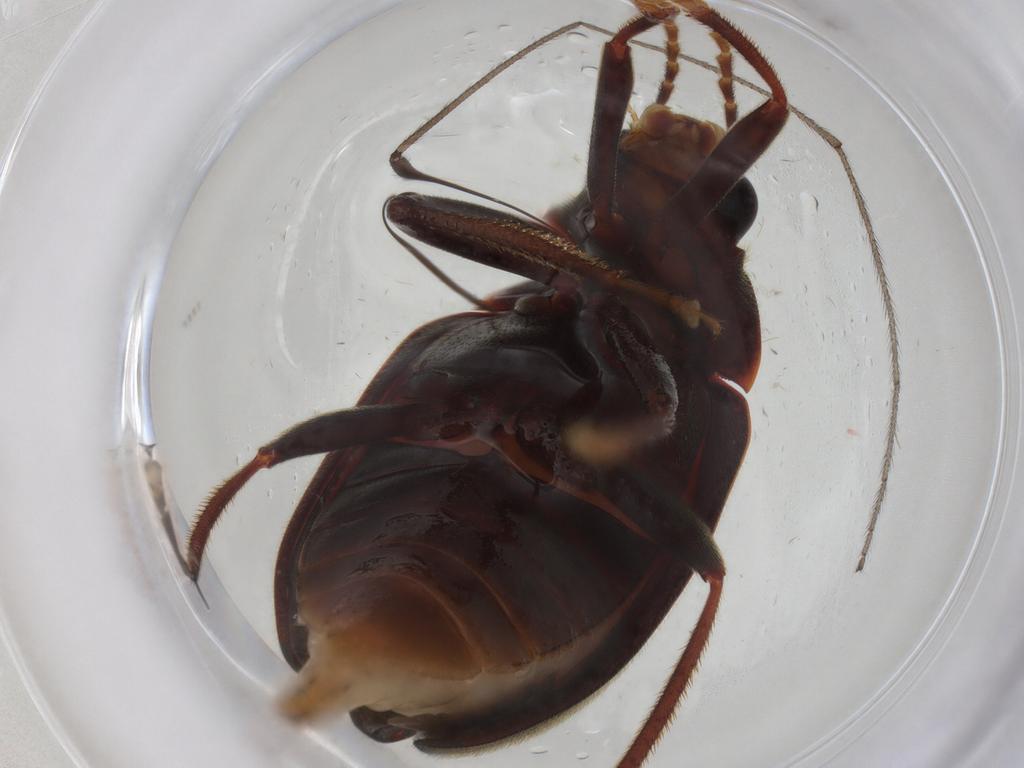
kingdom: Animalia
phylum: Arthropoda
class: Insecta
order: Coleoptera
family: Ptilodactylidae
